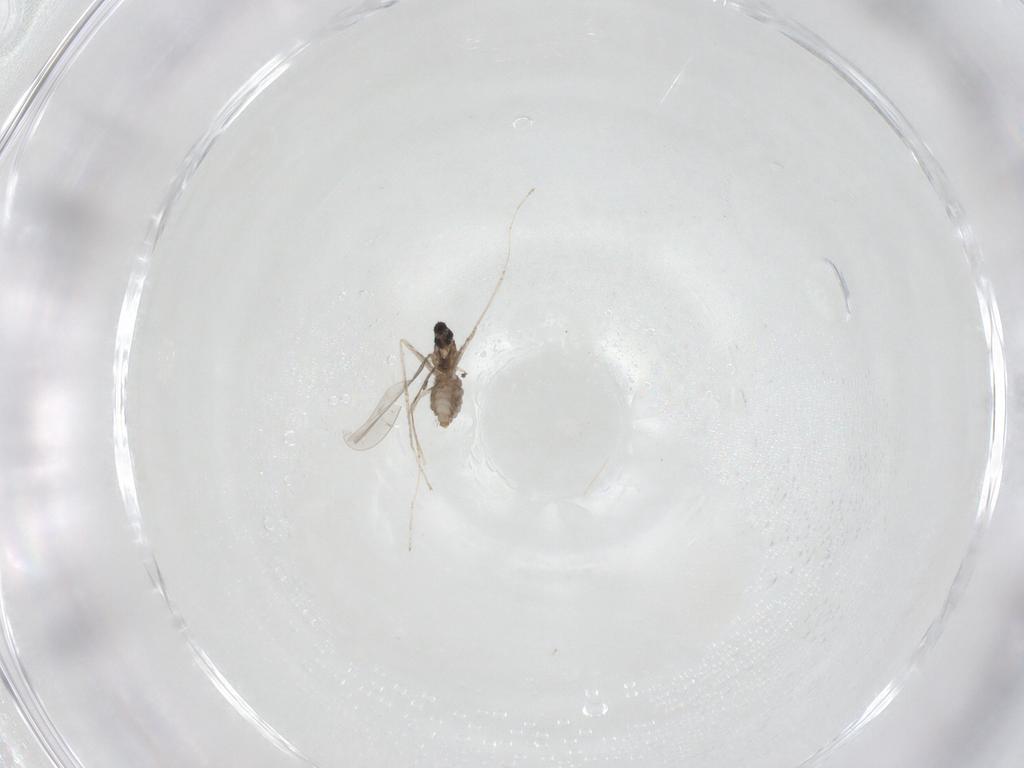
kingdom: Animalia
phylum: Arthropoda
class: Insecta
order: Diptera
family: Cecidomyiidae
